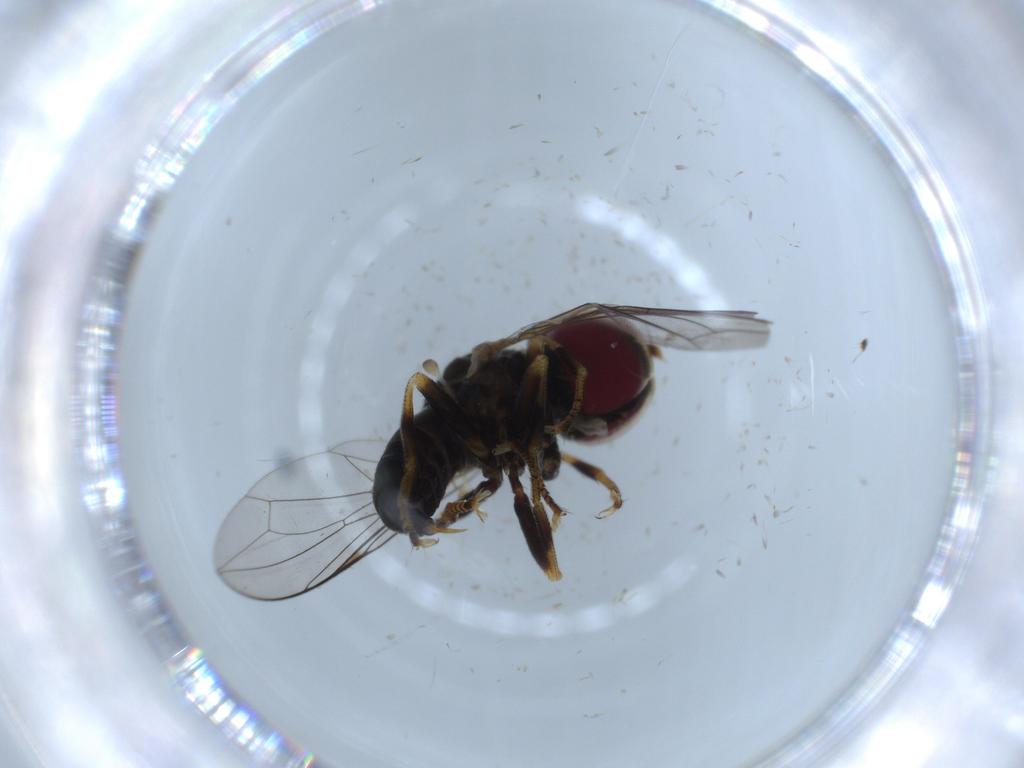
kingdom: Animalia
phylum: Arthropoda
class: Insecta
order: Diptera
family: Pipunculidae
